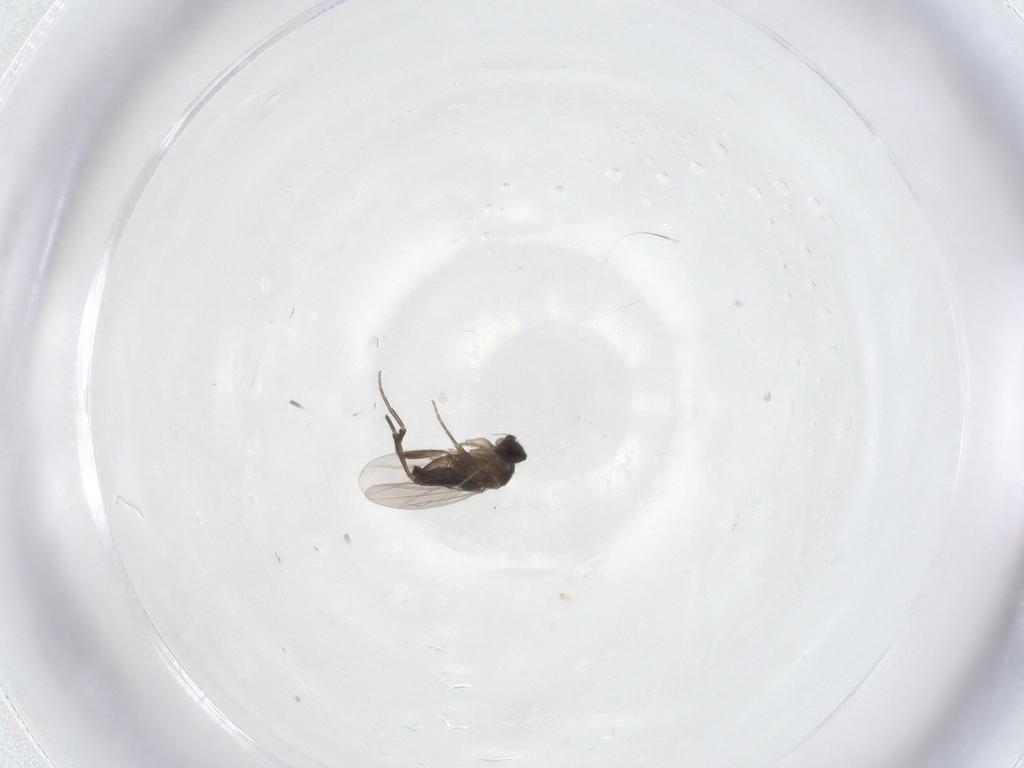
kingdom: Animalia
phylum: Arthropoda
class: Insecta
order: Diptera
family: Phoridae
